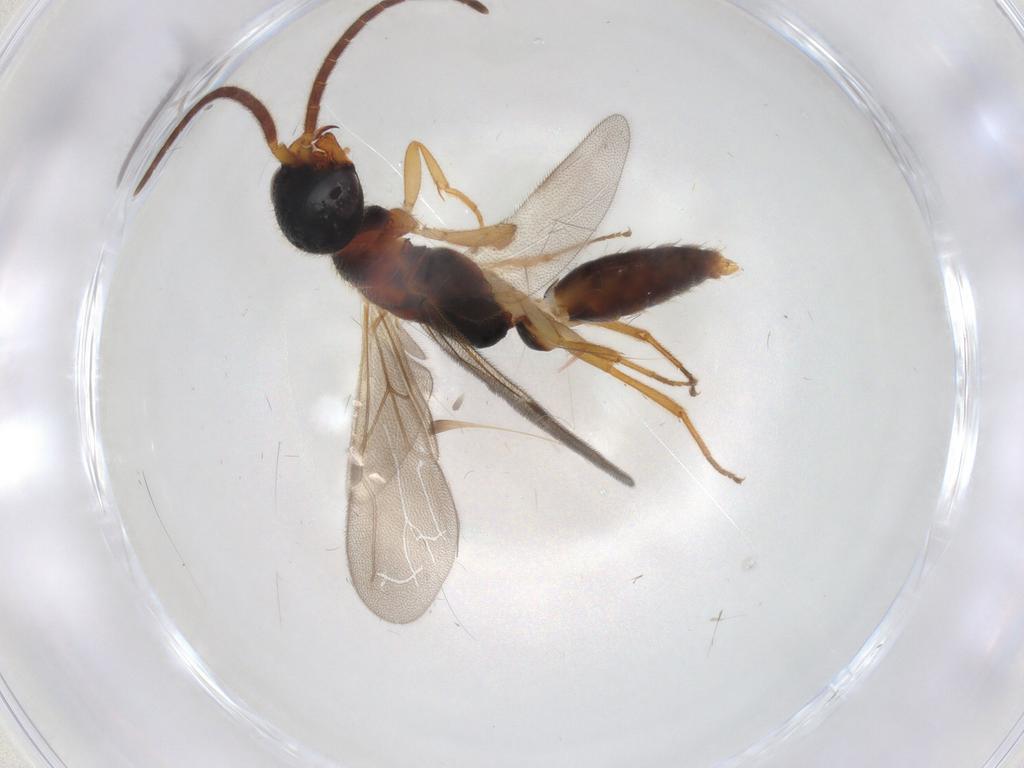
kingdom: Animalia
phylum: Arthropoda
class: Insecta
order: Hymenoptera
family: Bethylidae
